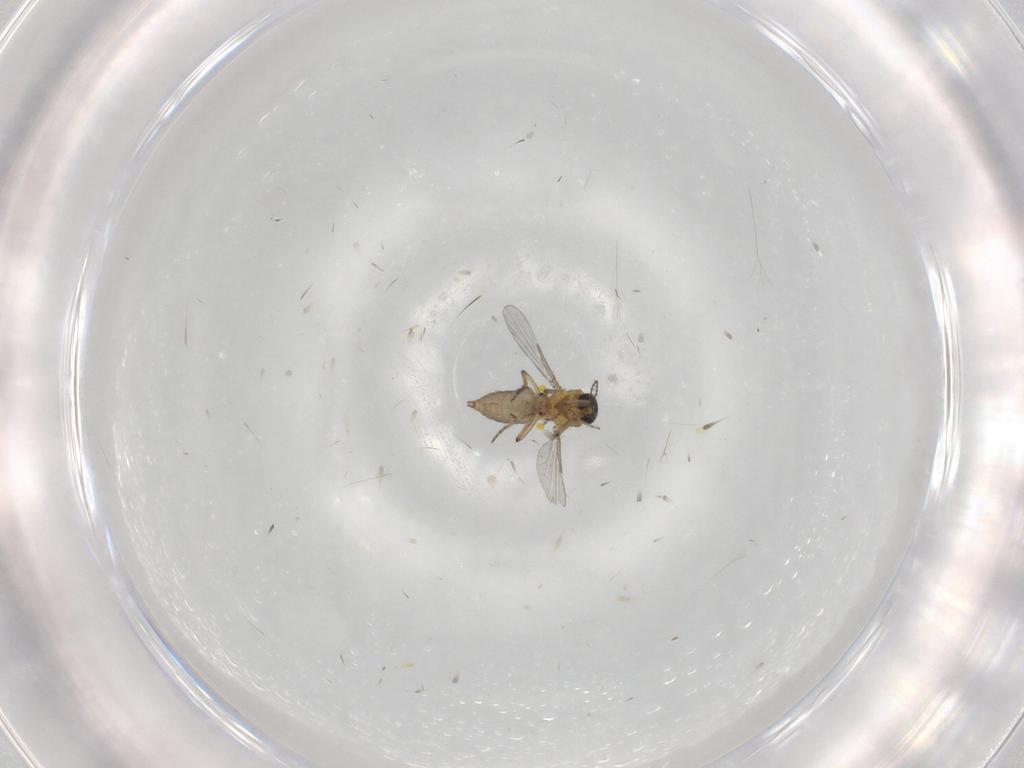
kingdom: Animalia
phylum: Arthropoda
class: Insecta
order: Diptera
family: Ceratopogonidae
